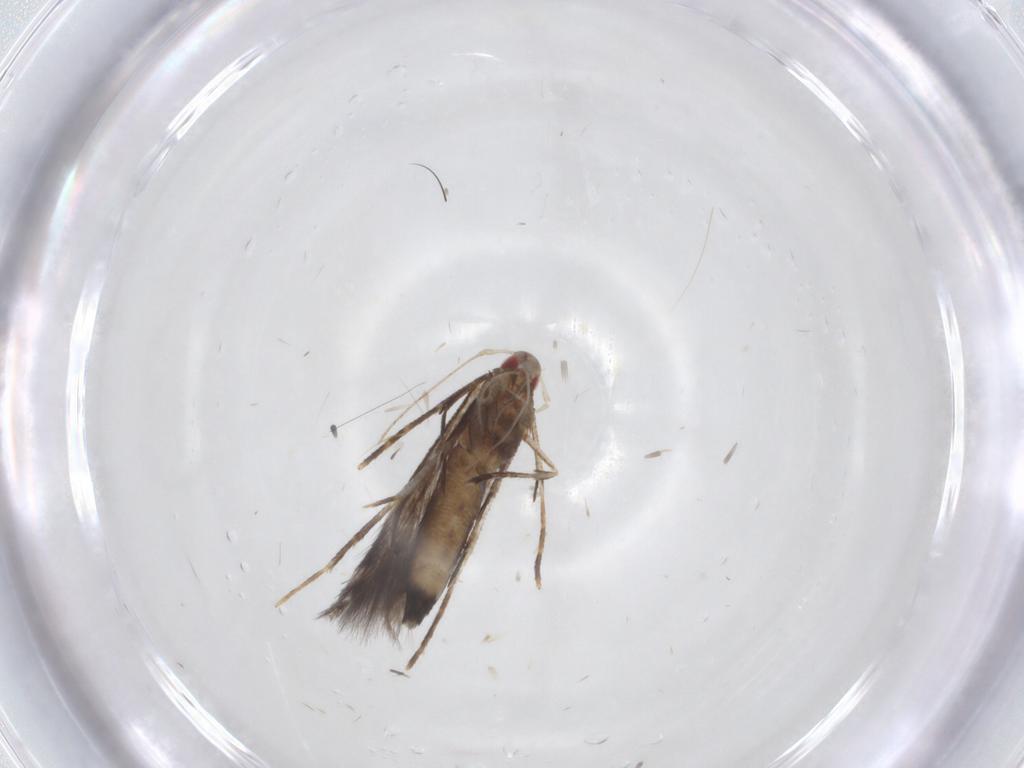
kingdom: Animalia
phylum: Arthropoda
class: Insecta
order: Lepidoptera
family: Cosmopterigidae
